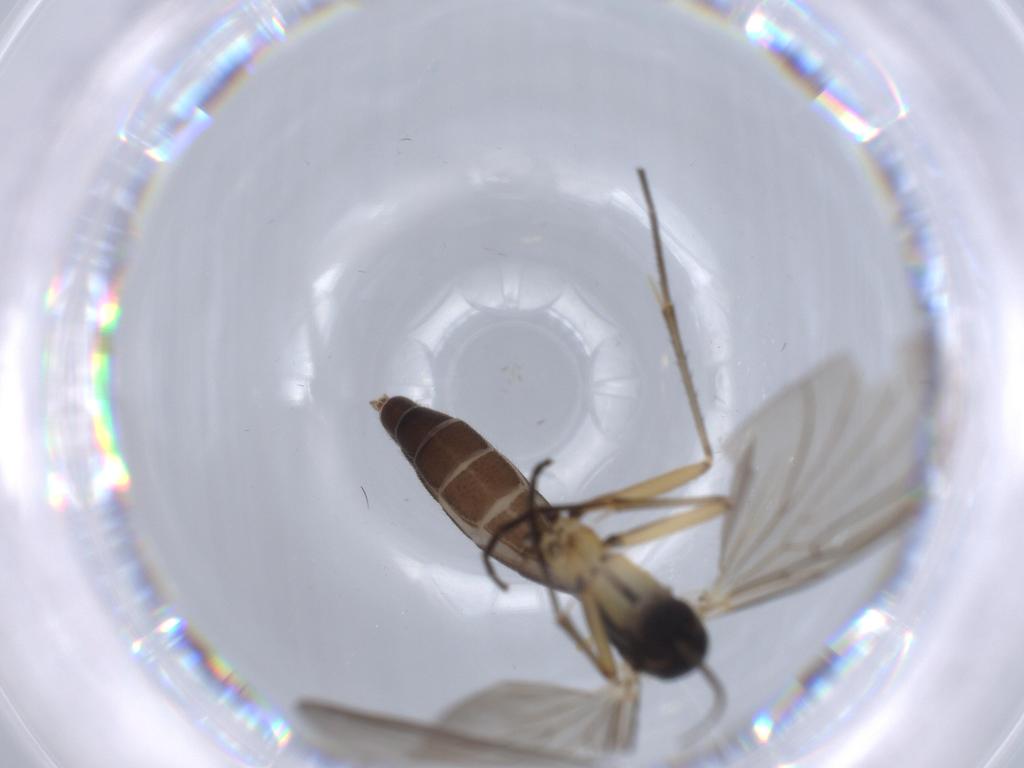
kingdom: Animalia
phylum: Arthropoda
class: Insecta
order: Diptera
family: Mycetophilidae
